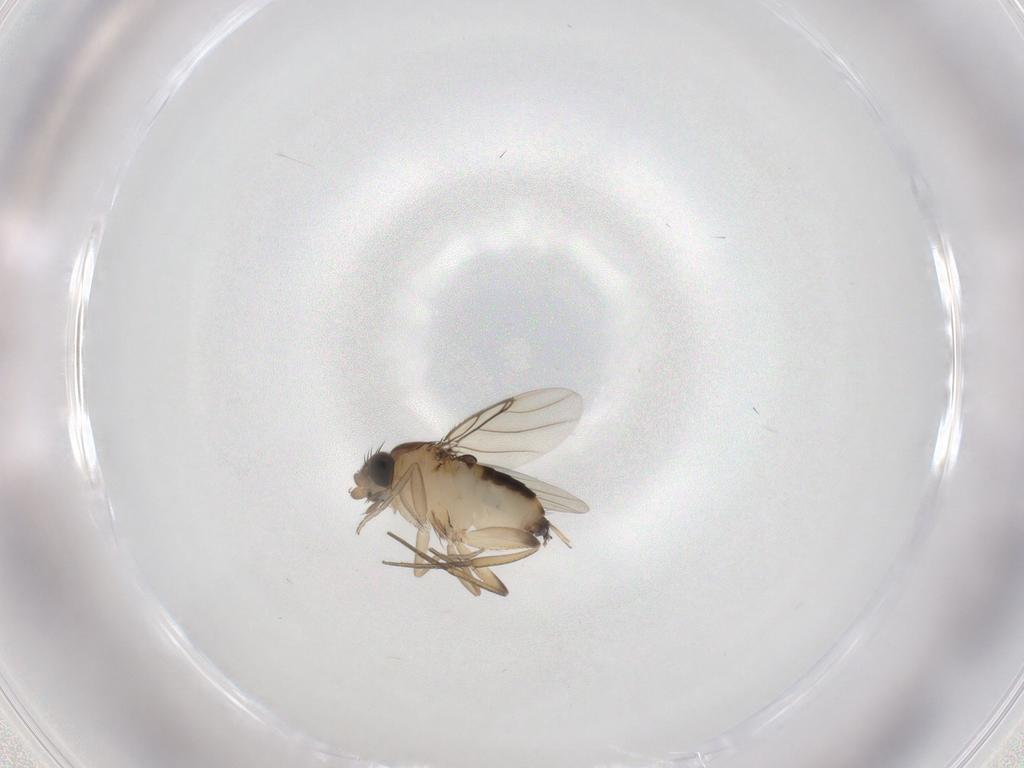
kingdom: Animalia
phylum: Arthropoda
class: Insecta
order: Diptera
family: Phoridae
